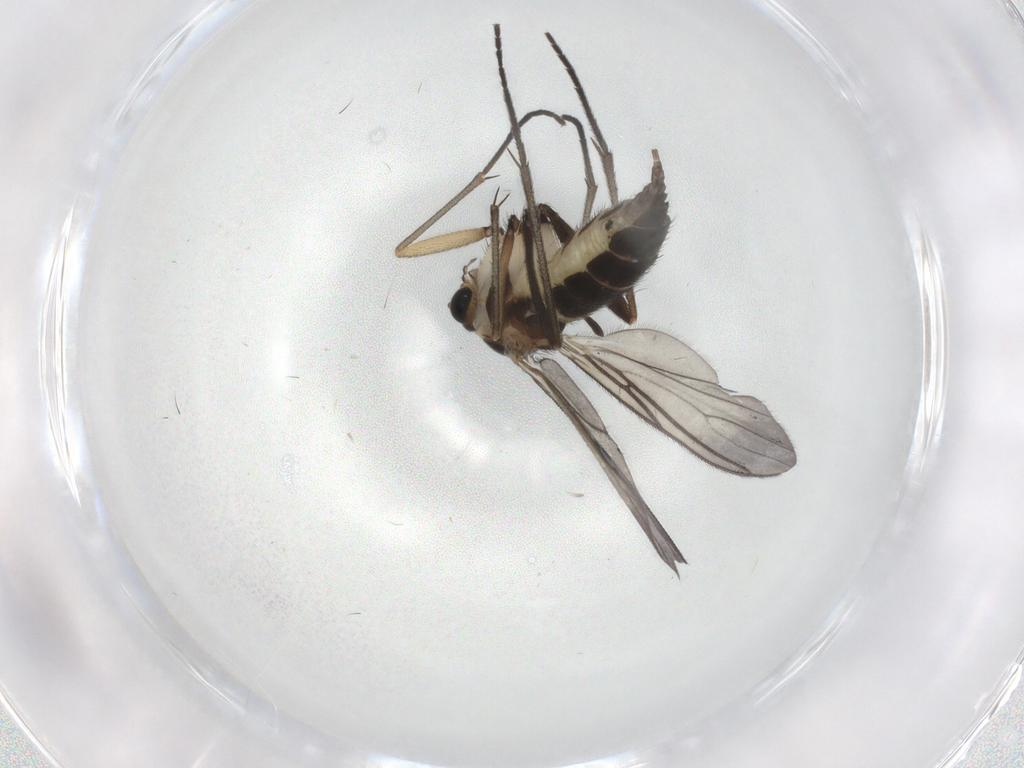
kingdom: Animalia
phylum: Arthropoda
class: Insecta
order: Diptera
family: Sciaridae
